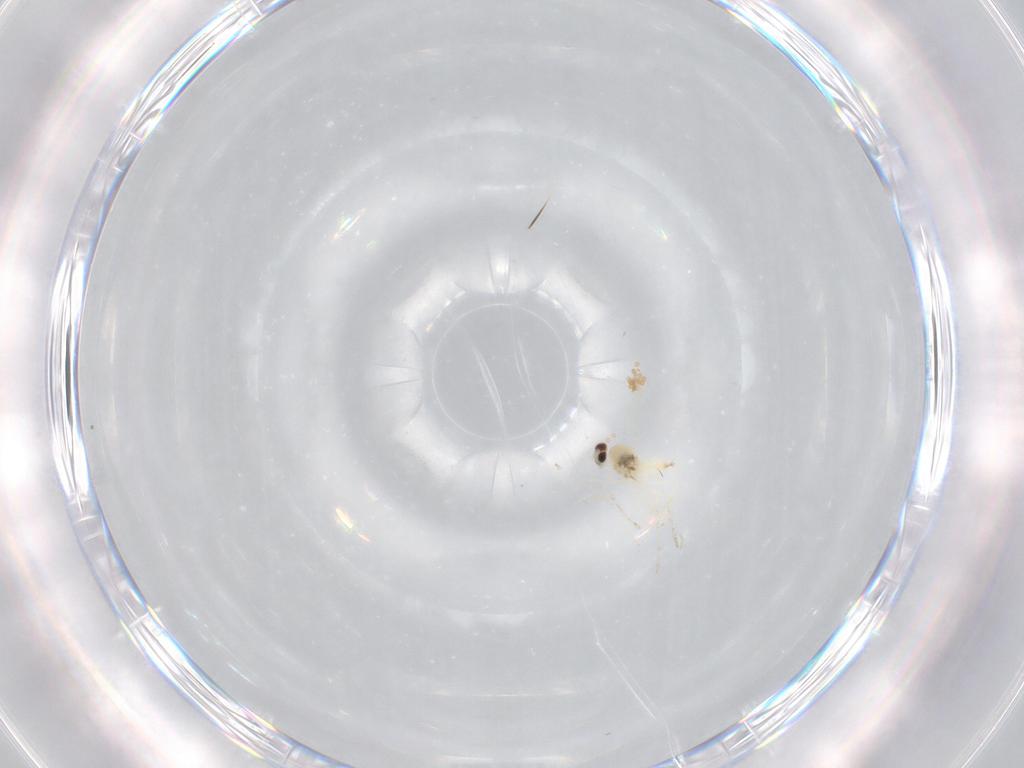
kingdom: Animalia
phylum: Arthropoda
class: Insecta
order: Diptera
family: Cecidomyiidae
